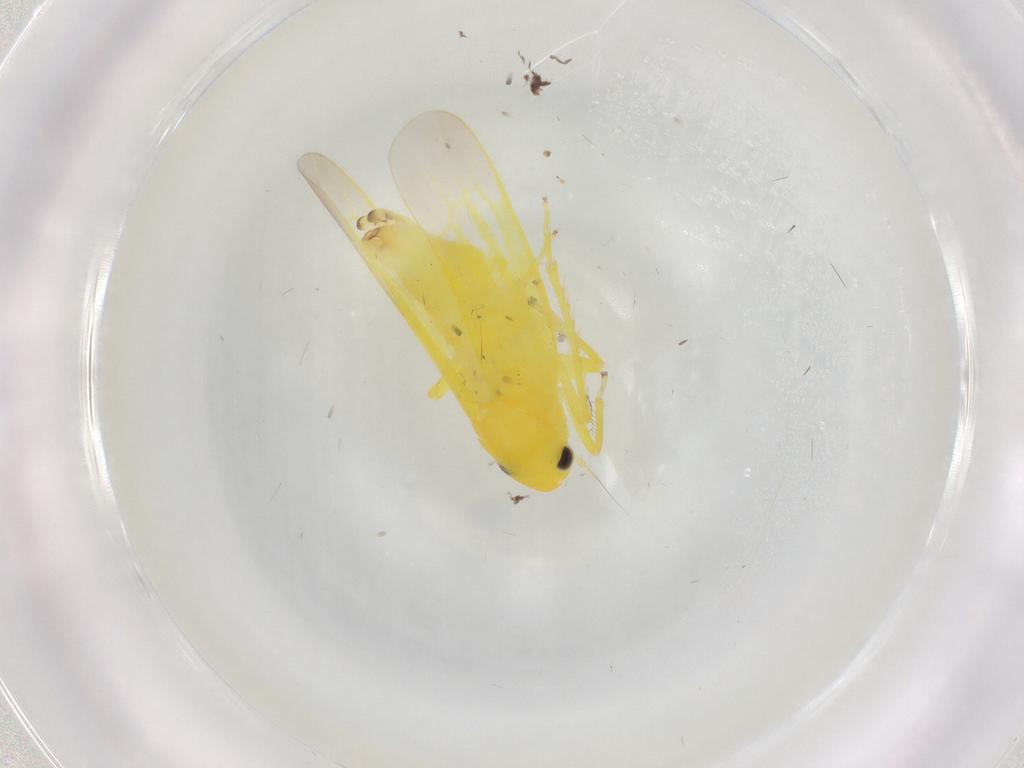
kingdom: Animalia
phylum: Arthropoda
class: Insecta
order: Hemiptera
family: Cicadellidae
